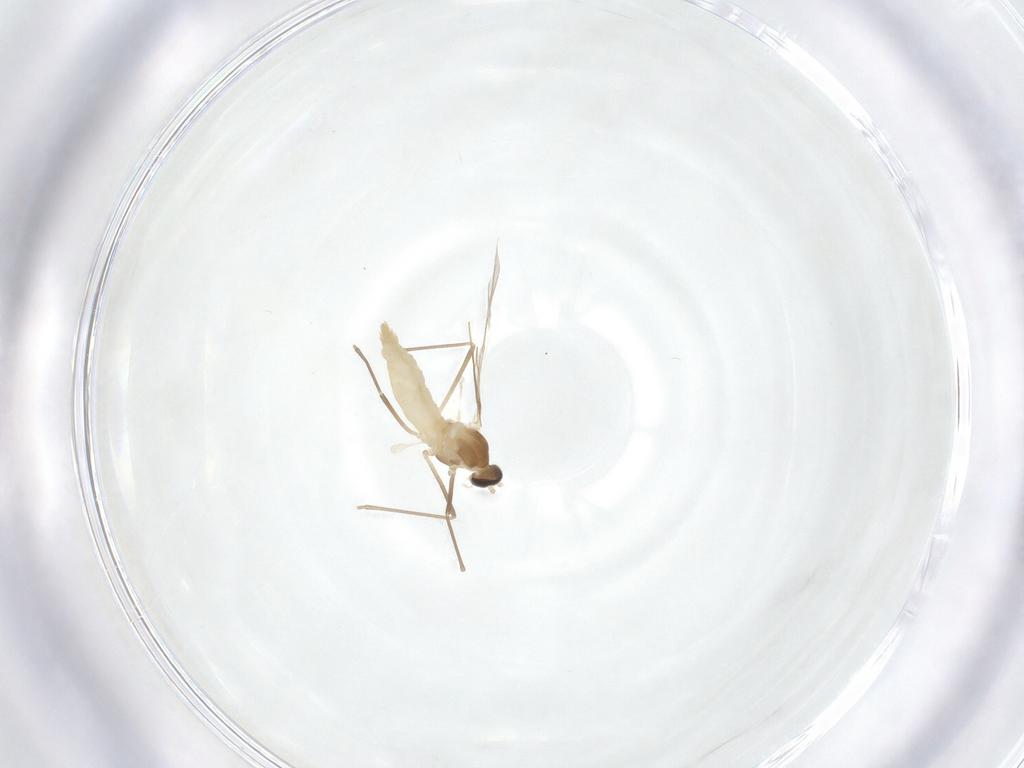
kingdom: Animalia
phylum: Arthropoda
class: Insecta
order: Diptera
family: Cecidomyiidae
